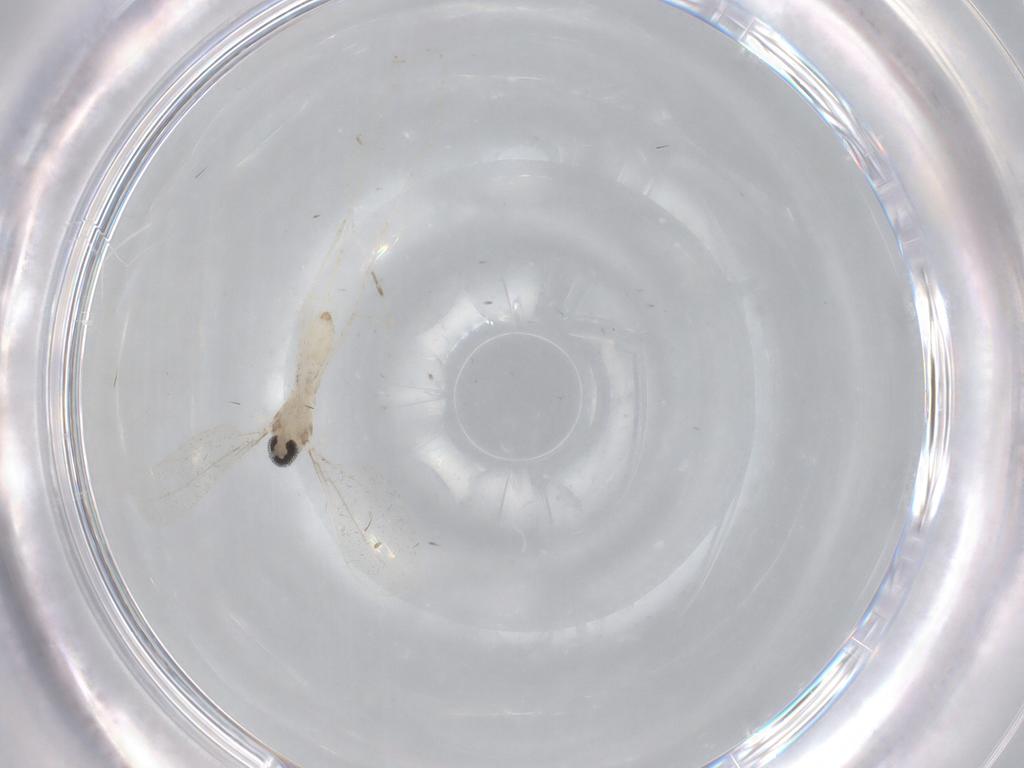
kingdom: Animalia
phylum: Arthropoda
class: Insecta
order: Diptera
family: Cecidomyiidae
